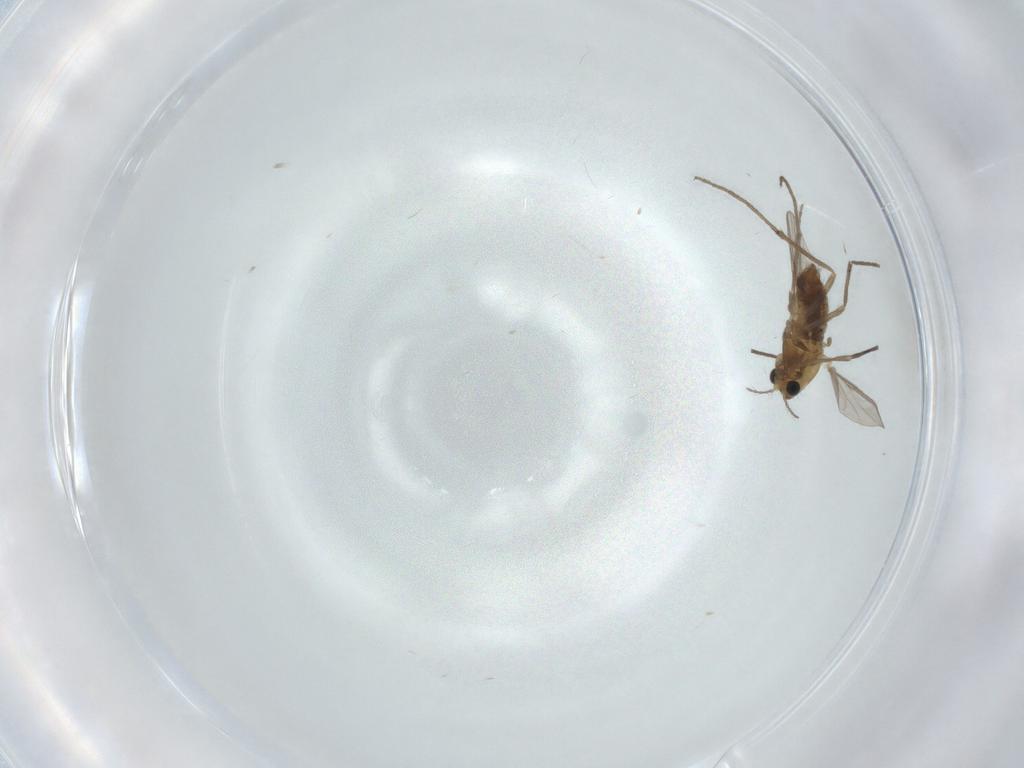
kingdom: Animalia
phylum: Arthropoda
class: Insecta
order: Diptera
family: Chironomidae
